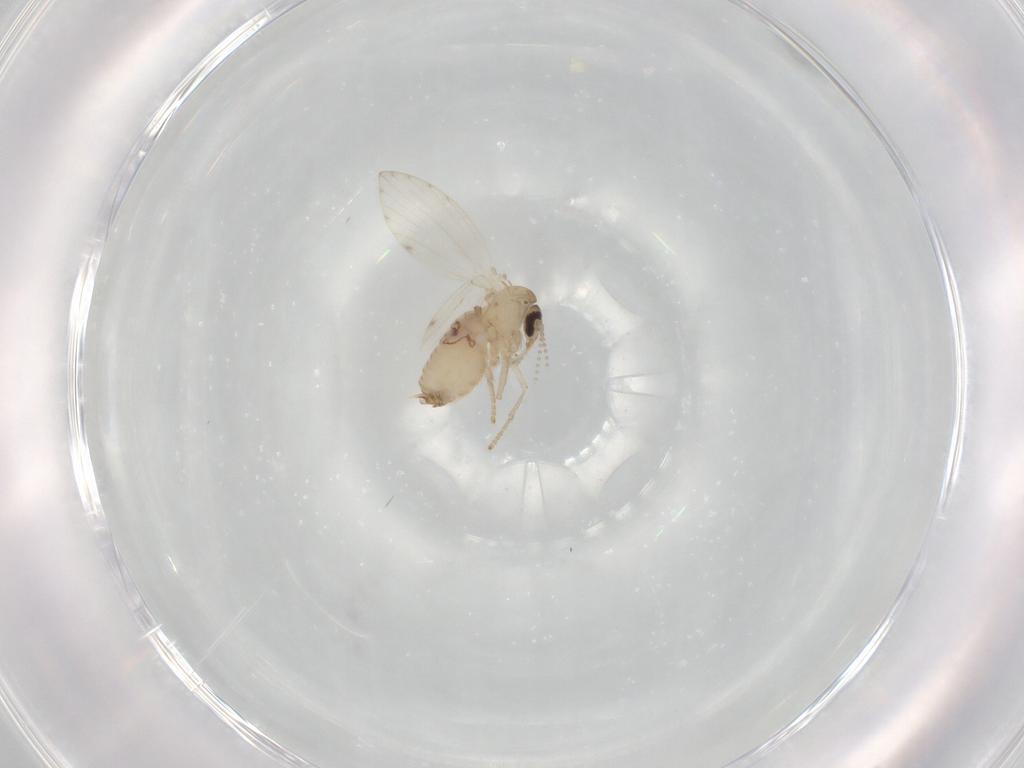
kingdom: Animalia
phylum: Arthropoda
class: Insecta
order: Diptera
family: Psychodidae
